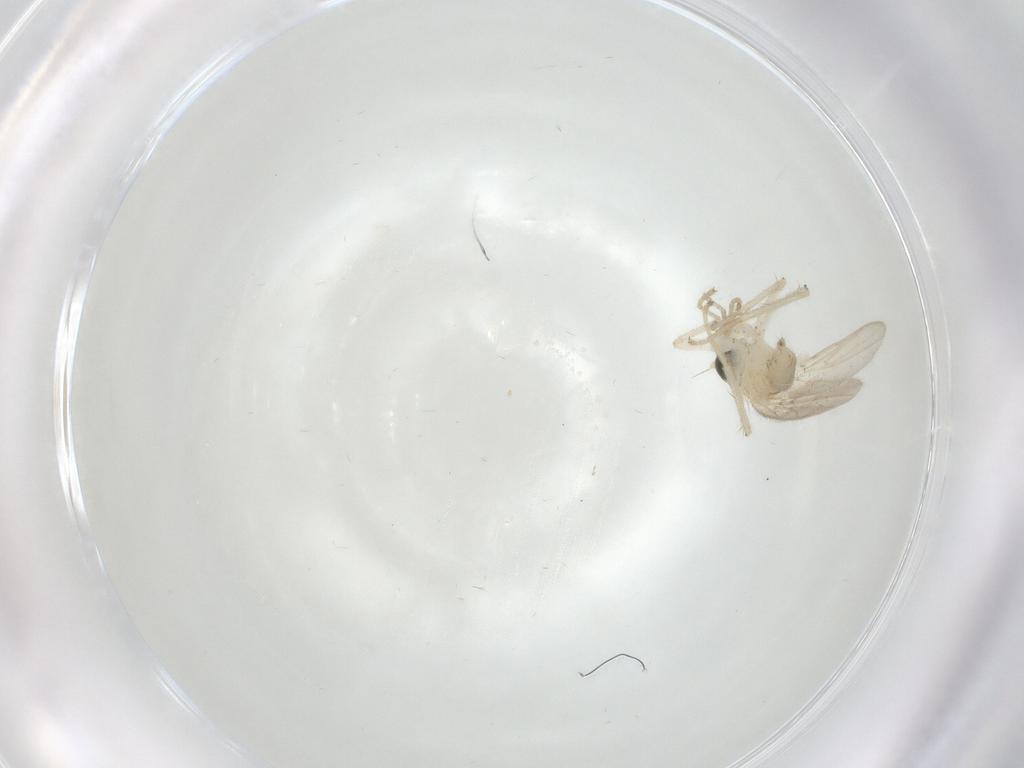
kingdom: Animalia
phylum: Arthropoda
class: Insecta
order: Diptera
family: Hybotidae
